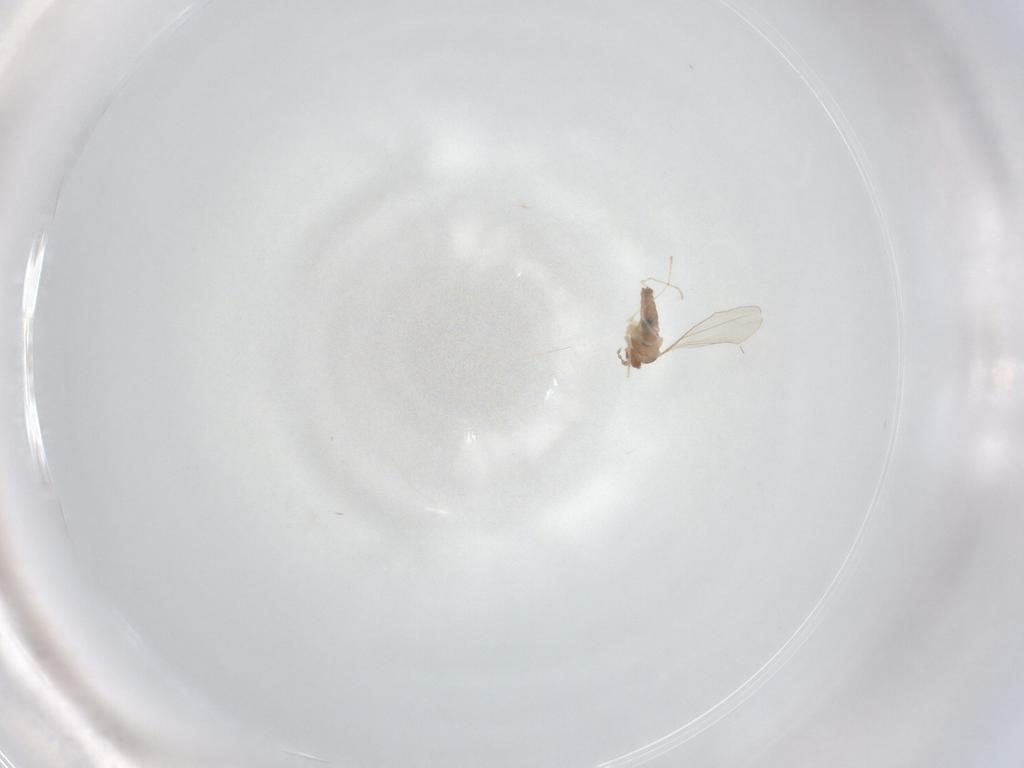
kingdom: Animalia
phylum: Arthropoda
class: Insecta
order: Diptera
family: Cecidomyiidae
